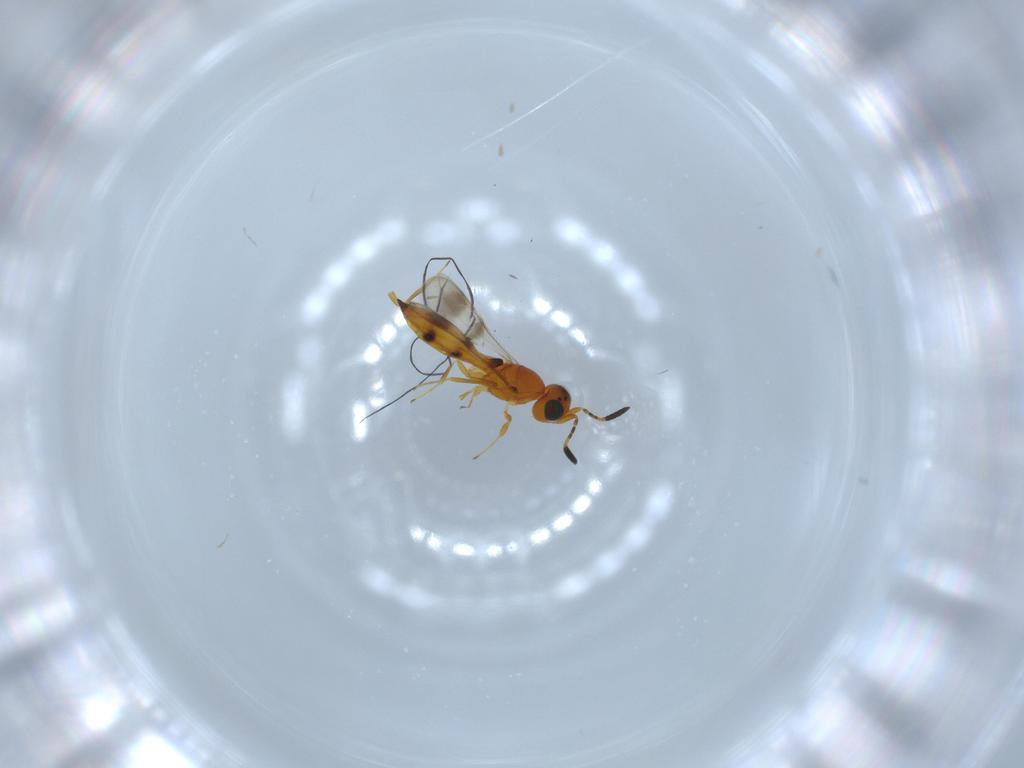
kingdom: Animalia
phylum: Arthropoda
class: Insecta
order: Hymenoptera
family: Scelionidae
